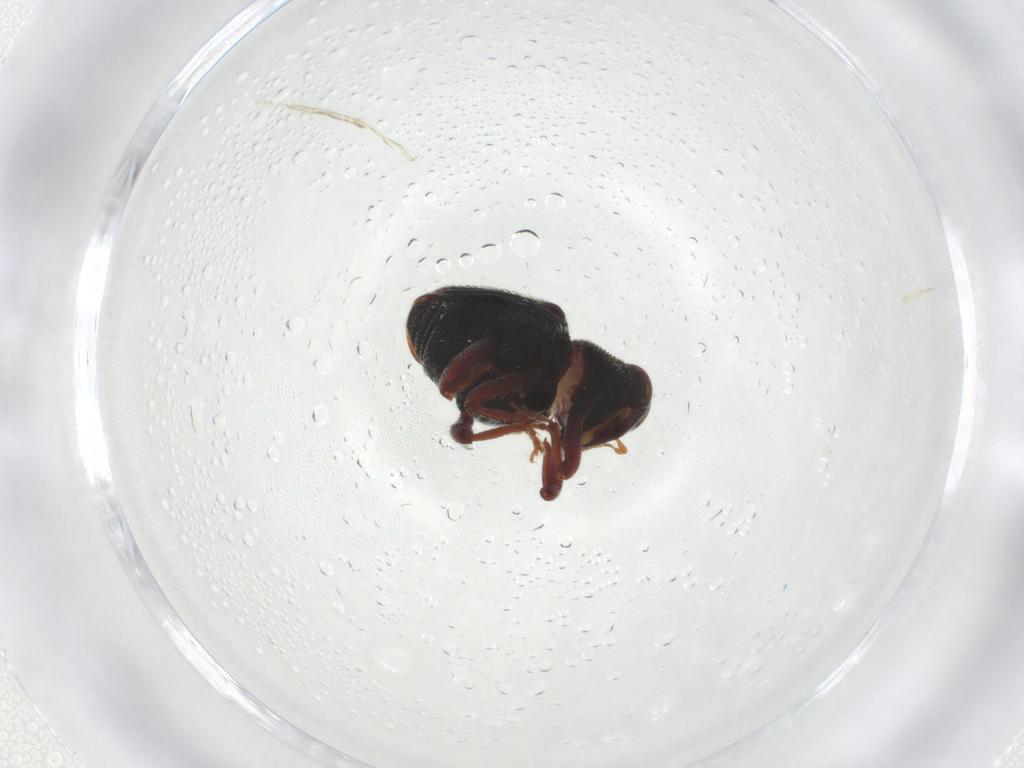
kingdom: Animalia
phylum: Arthropoda
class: Insecta
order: Coleoptera
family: Curculionidae
